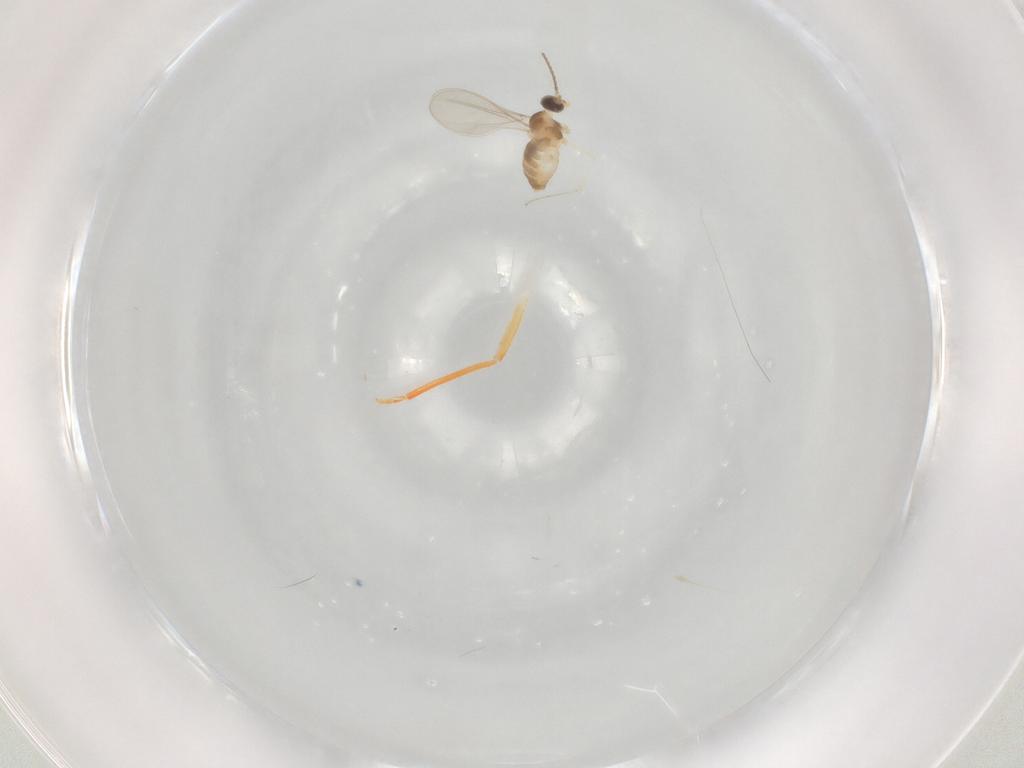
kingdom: Animalia
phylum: Arthropoda
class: Insecta
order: Diptera
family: Cecidomyiidae
